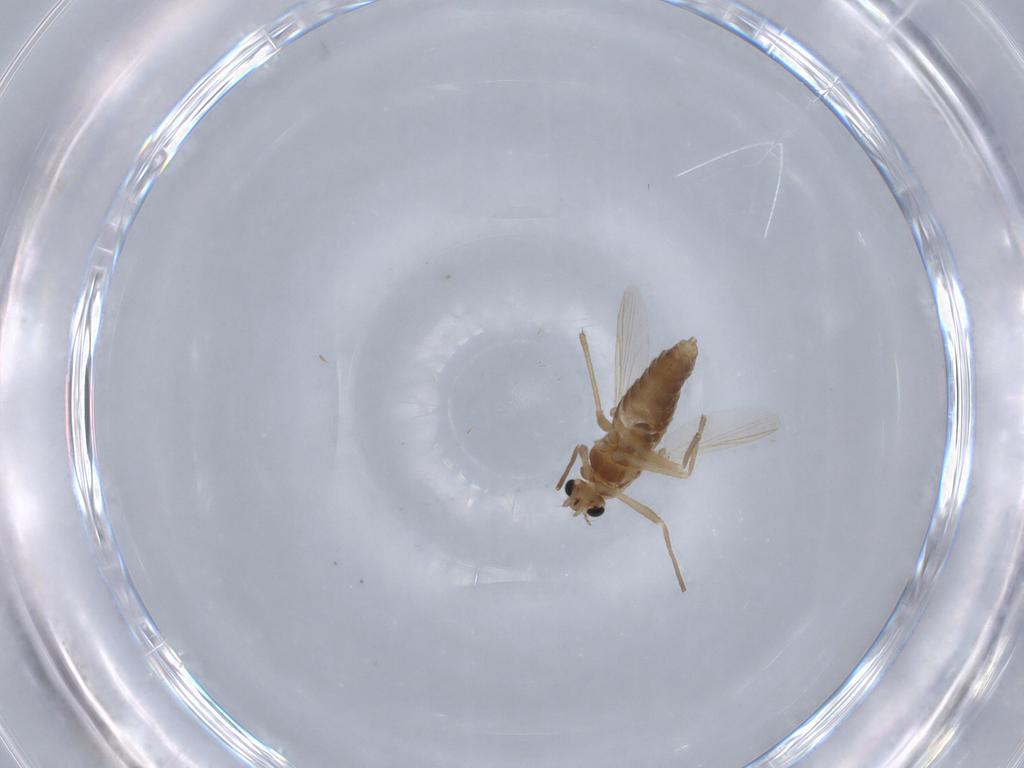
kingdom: Animalia
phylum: Arthropoda
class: Insecta
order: Diptera
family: Chironomidae
